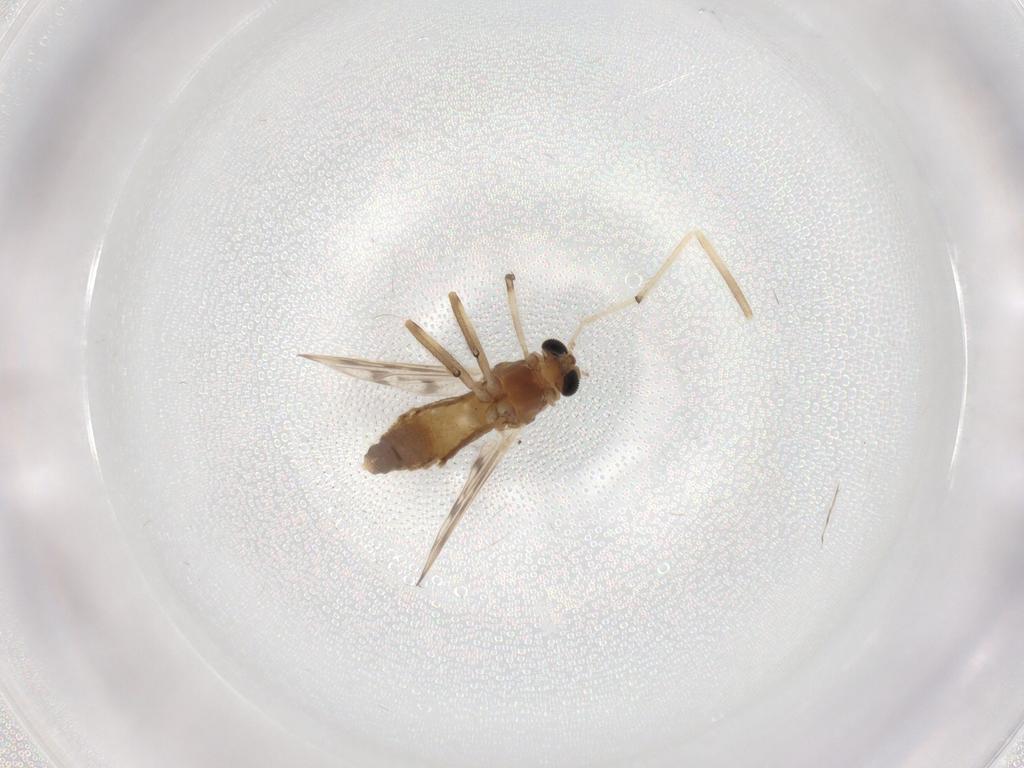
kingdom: Animalia
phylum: Arthropoda
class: Insecta
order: Diptera
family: Chironomidae
